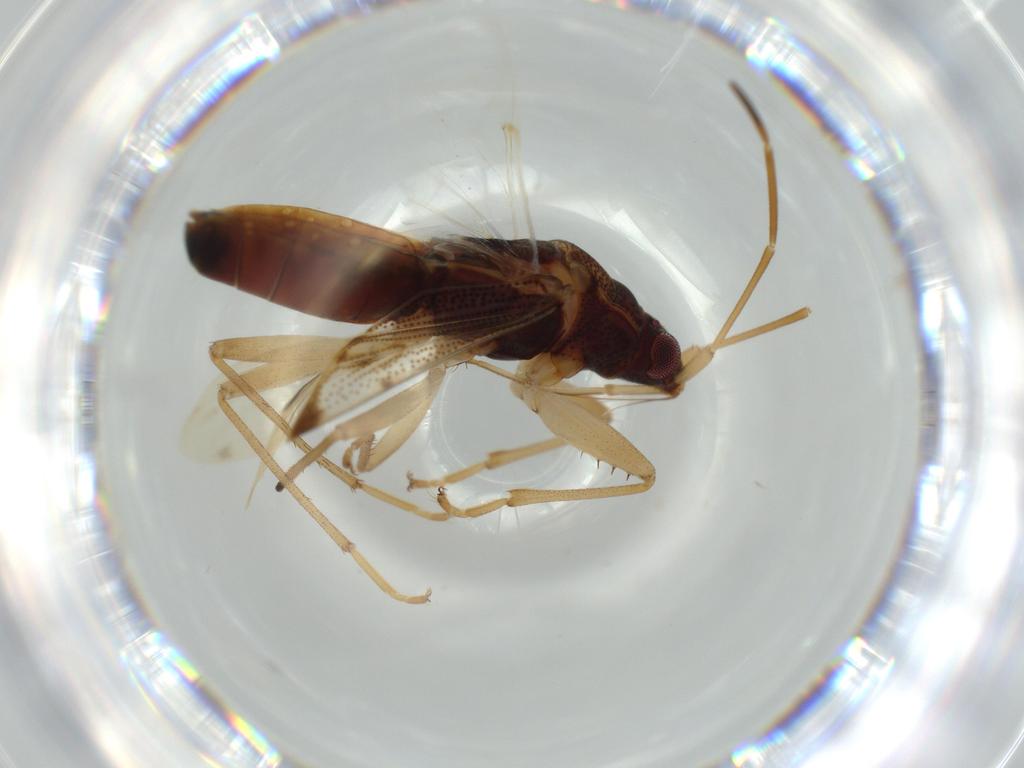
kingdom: Animalia
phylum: Arthropoda
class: Insecta
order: Hemiptera
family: Rhyparochromidae
